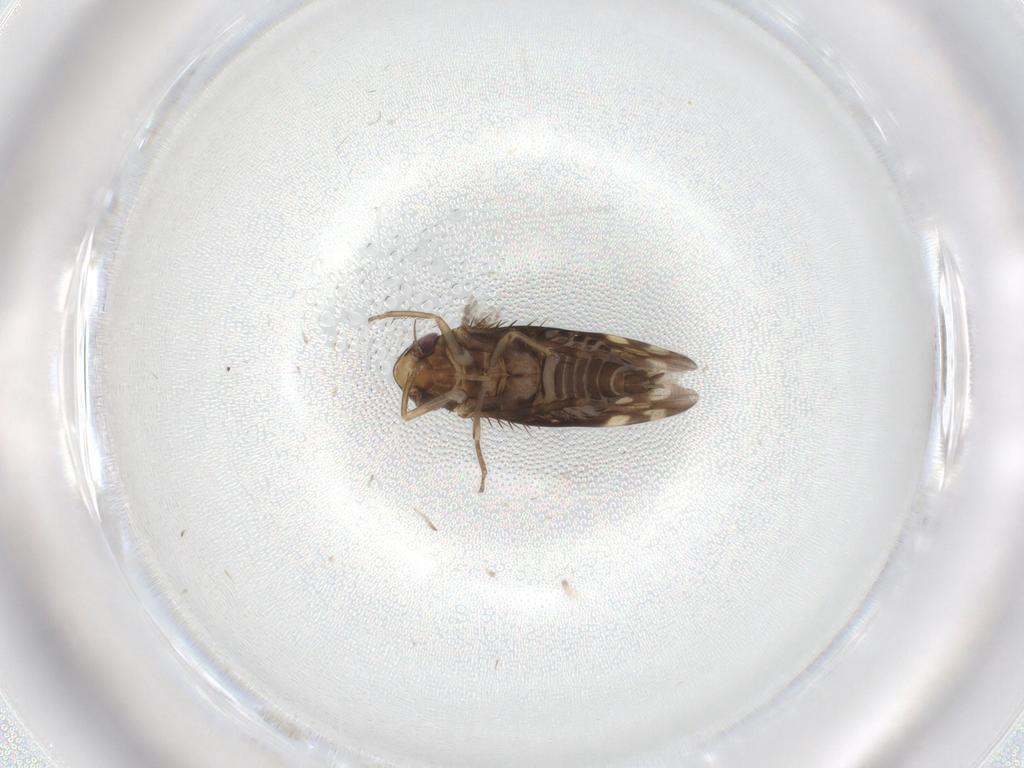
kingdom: Animalia
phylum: Arthropoda
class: Insecta
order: Hemiptera
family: Cicadellidae
